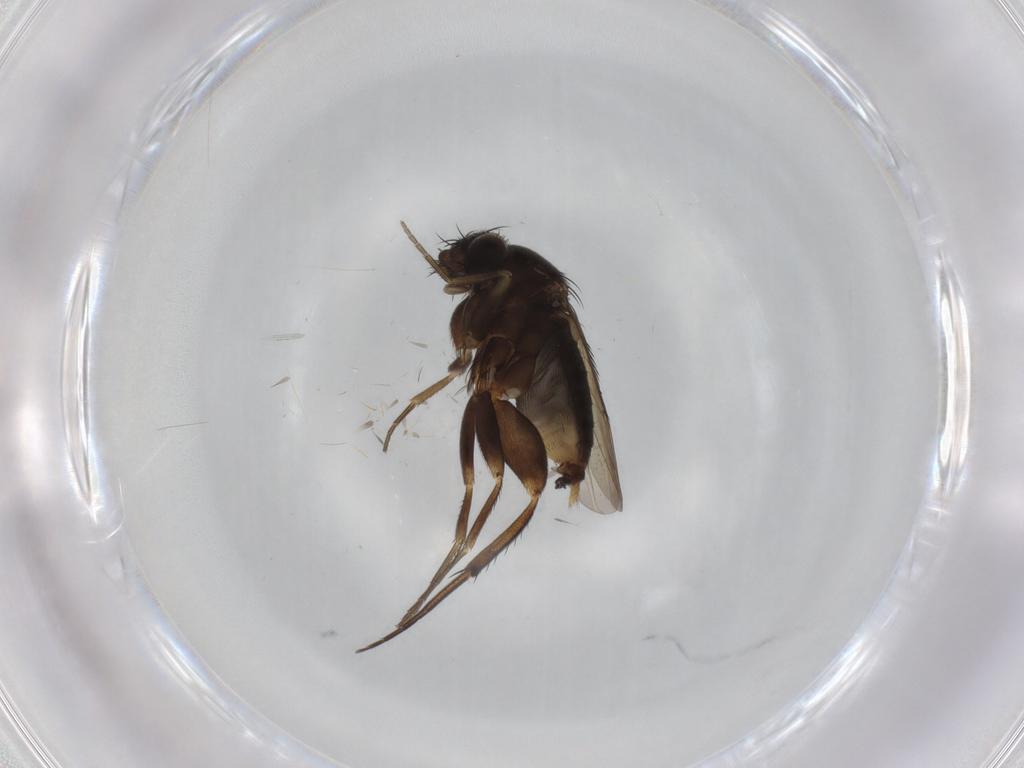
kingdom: Animalia
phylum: Arthropoda
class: Insecta
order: Diptera
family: Phoridae
